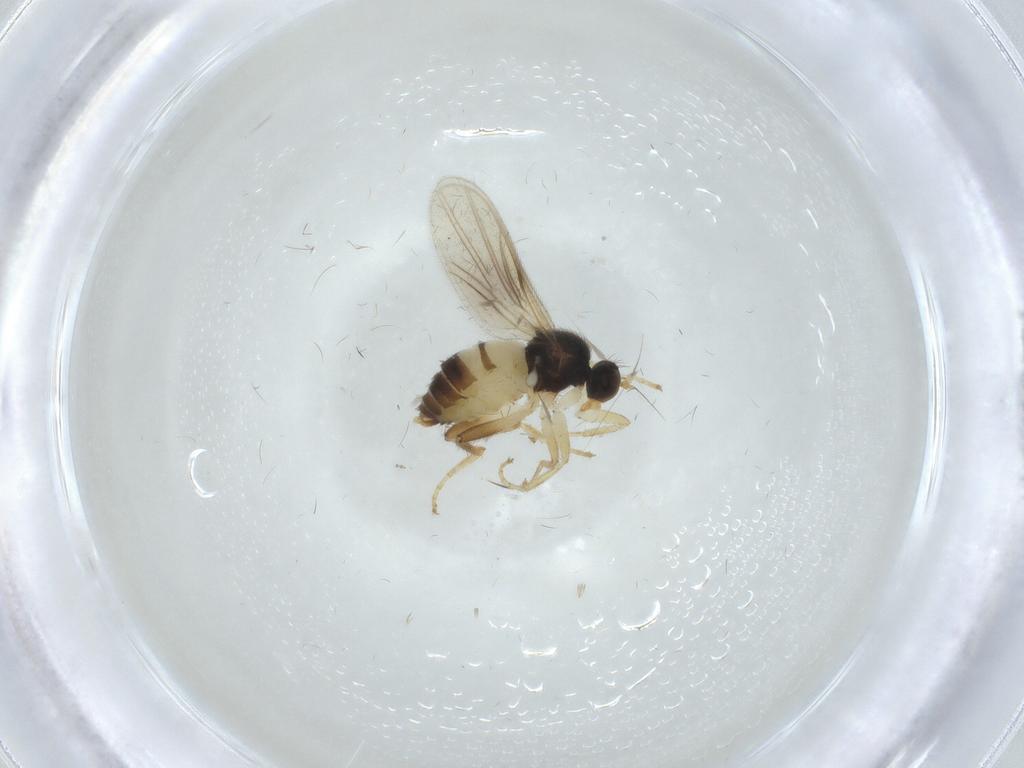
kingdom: Animalia
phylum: Arthropoda
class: Insecta
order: Diptera
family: Hybotidae
